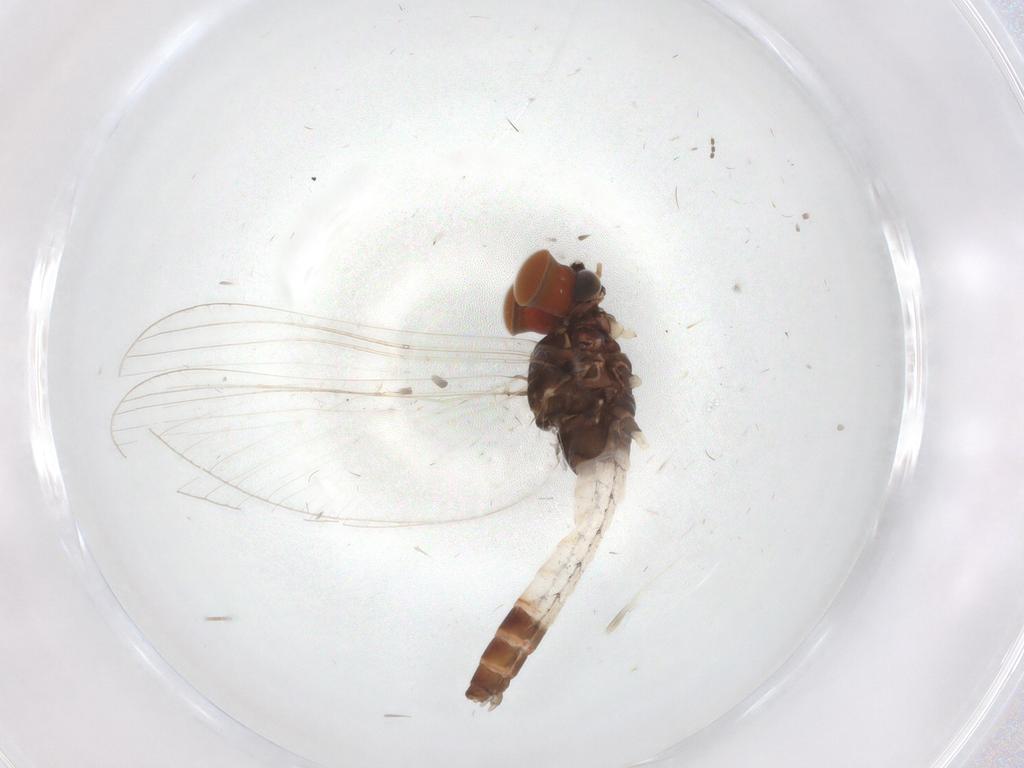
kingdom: Animalia
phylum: Arthropoda
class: Insecta
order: Diptera
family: Cecidomyiidae
